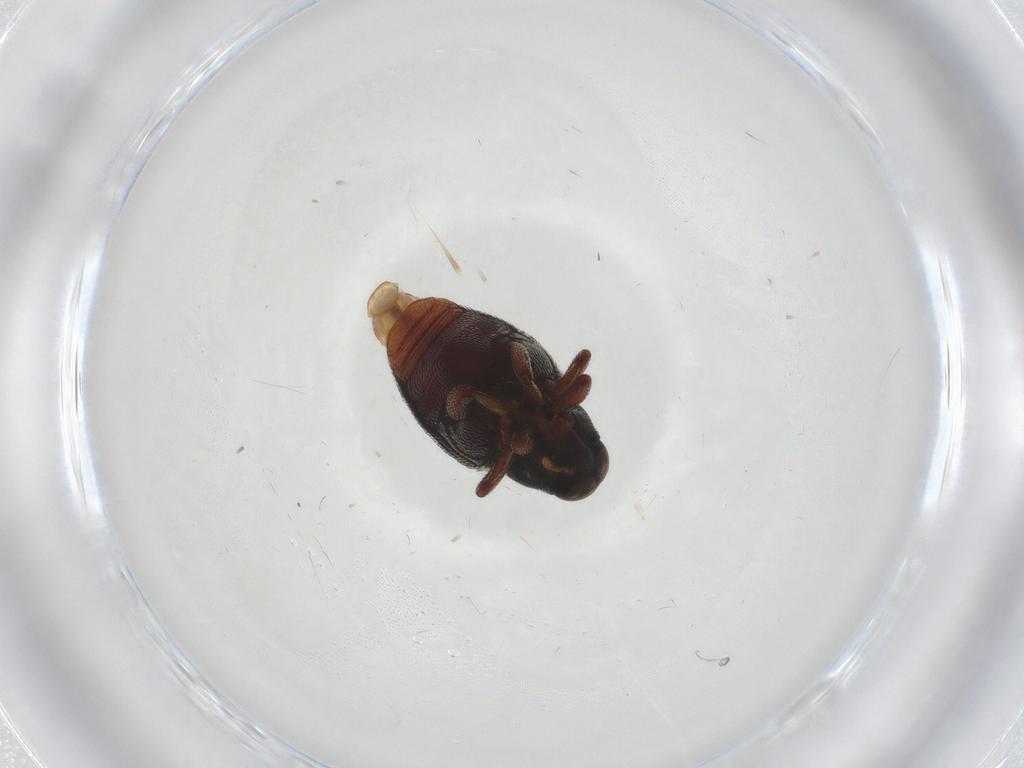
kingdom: Animalia
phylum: Arthropoda
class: Insecta
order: Coleoptera
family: Curculionidae
